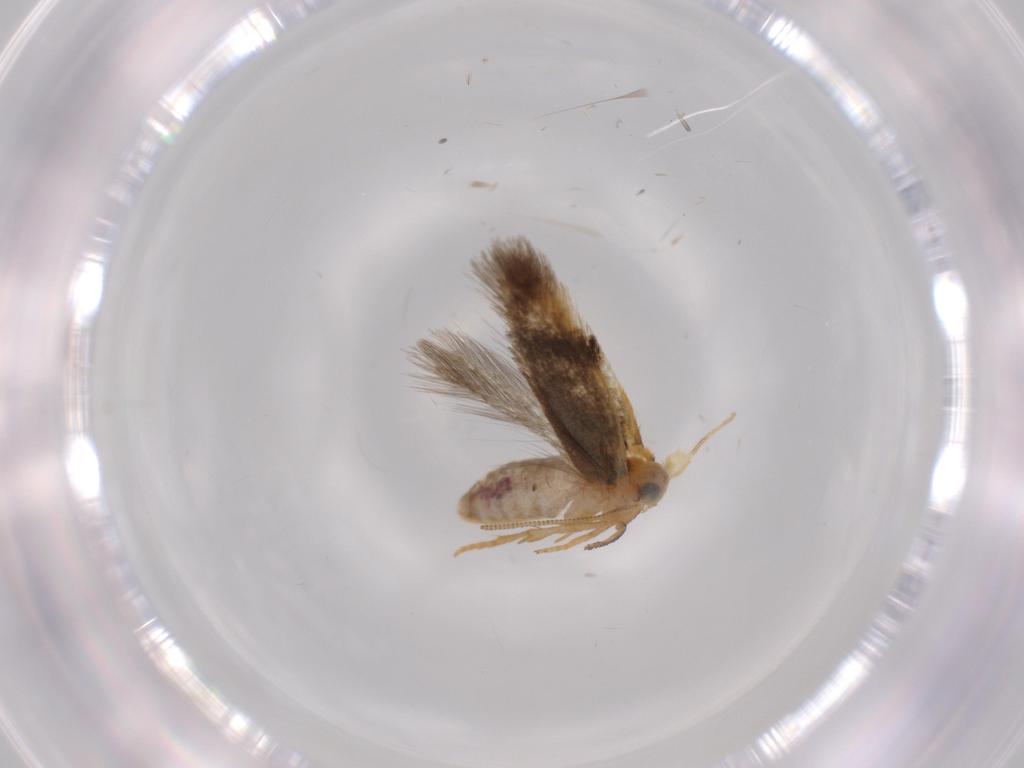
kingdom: Animalia
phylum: Arthropoda
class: Insecta
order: Lepidoptera
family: Nepticulidae
